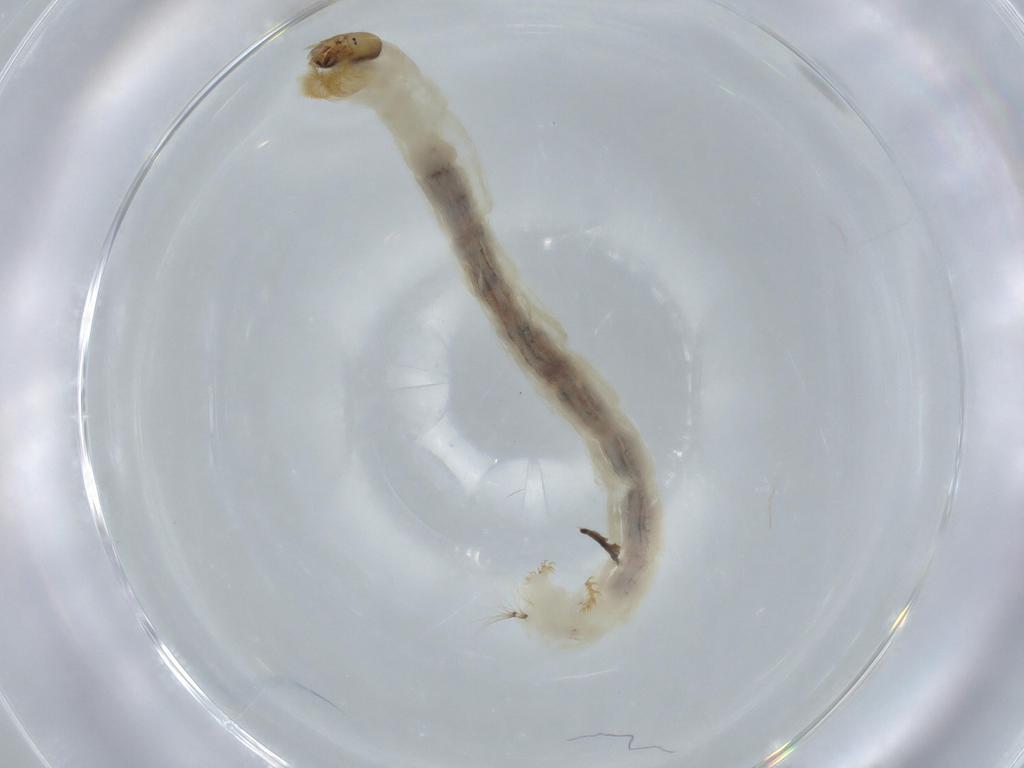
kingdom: Animalia
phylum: Arthropoda
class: Insecta
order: Diptera
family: Chironomidae
